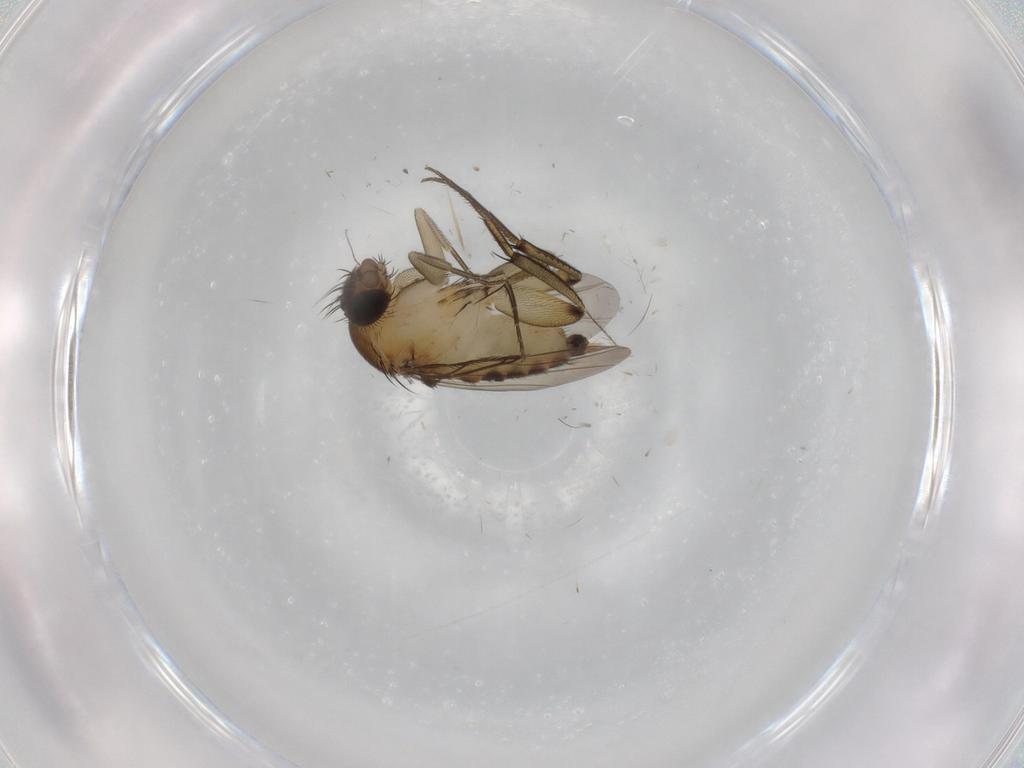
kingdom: Animalia
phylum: Arthropoda
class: Insecta
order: Diptera
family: Phoridae
